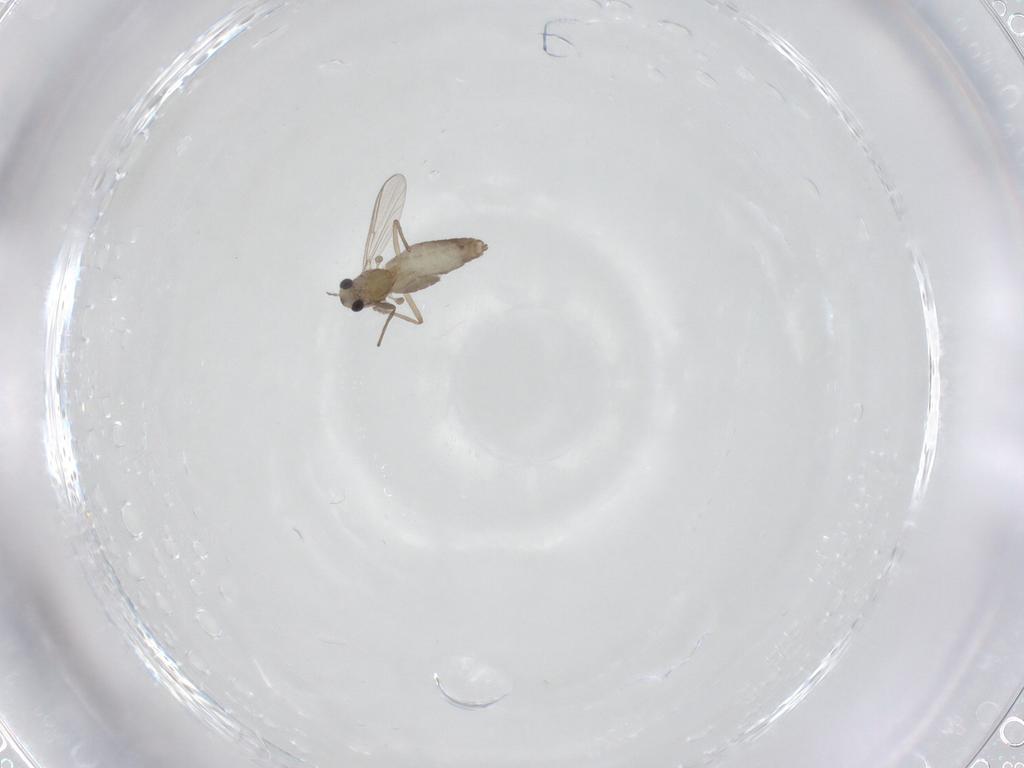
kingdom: Animalia
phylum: Arthropoda
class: Insecta
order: Diptera
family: Chironomidae
